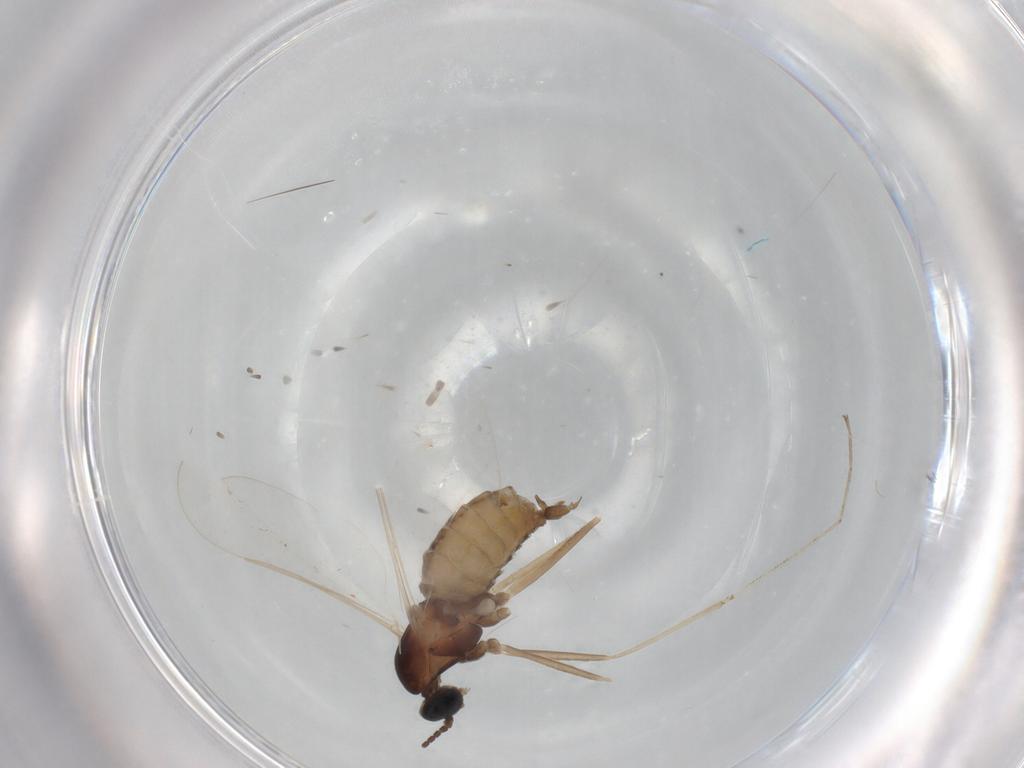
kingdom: Animalia
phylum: Arthropoda
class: Insecta
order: Diptera
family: Cecidomyiidae
